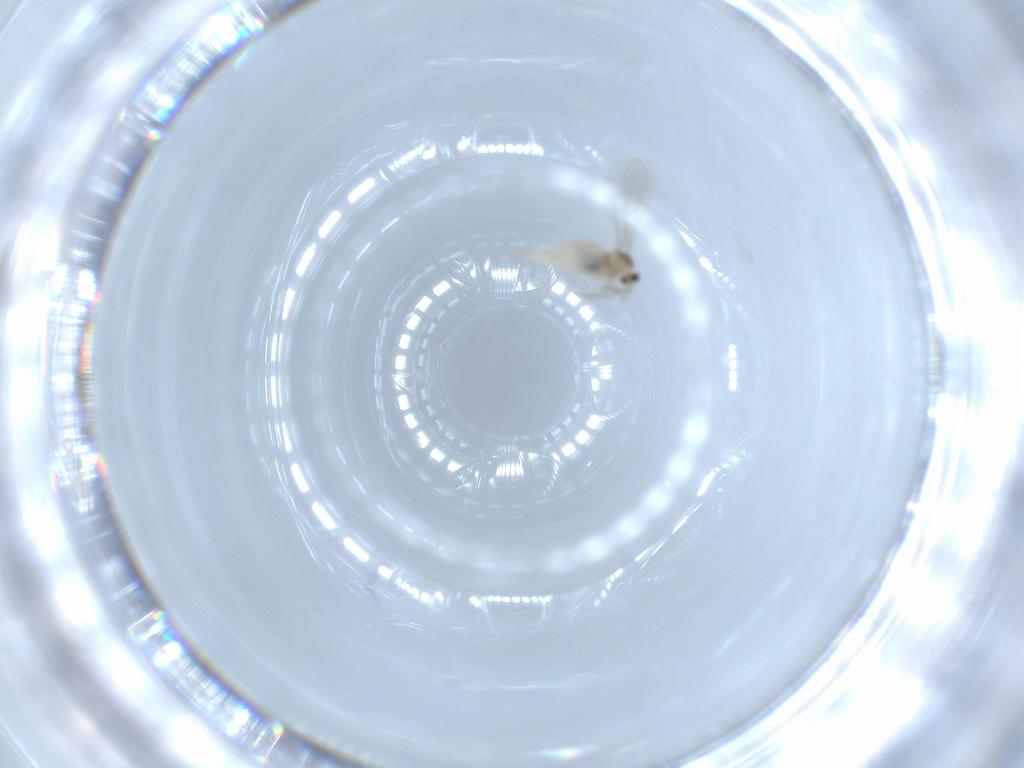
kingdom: Animalia
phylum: Arthropoda
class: Insecta
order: Diptera
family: Cecidomyiidae
